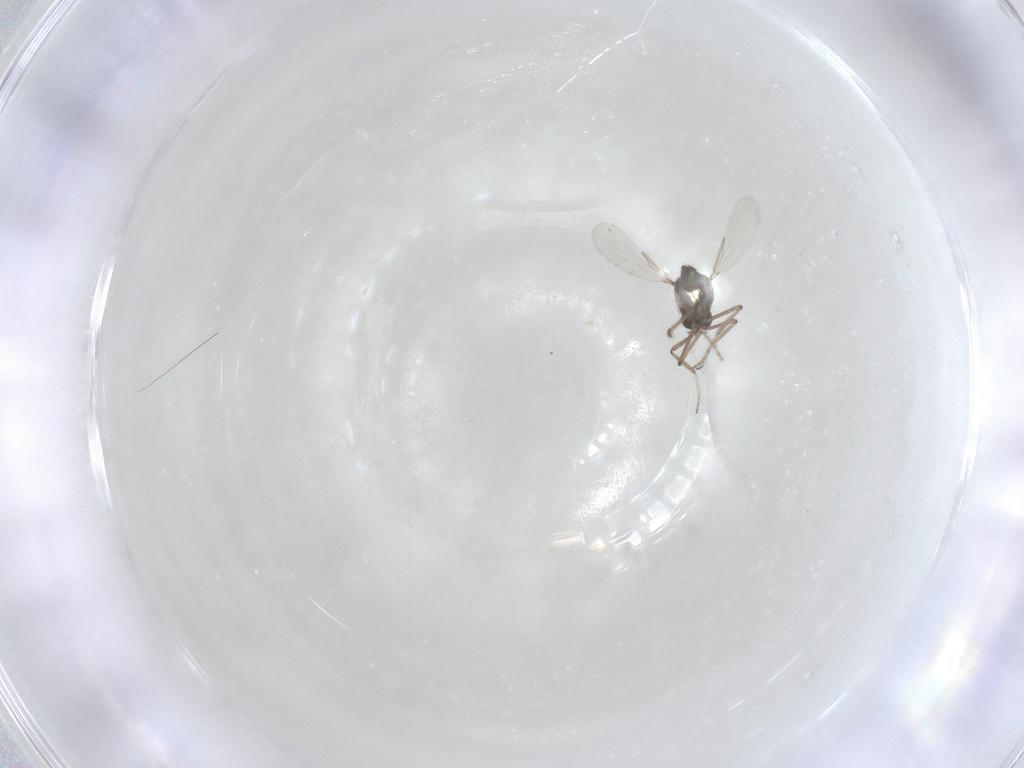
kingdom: Animalia
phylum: Arthropoda
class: Insecta
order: Diptera
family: Ceratopogonidae
